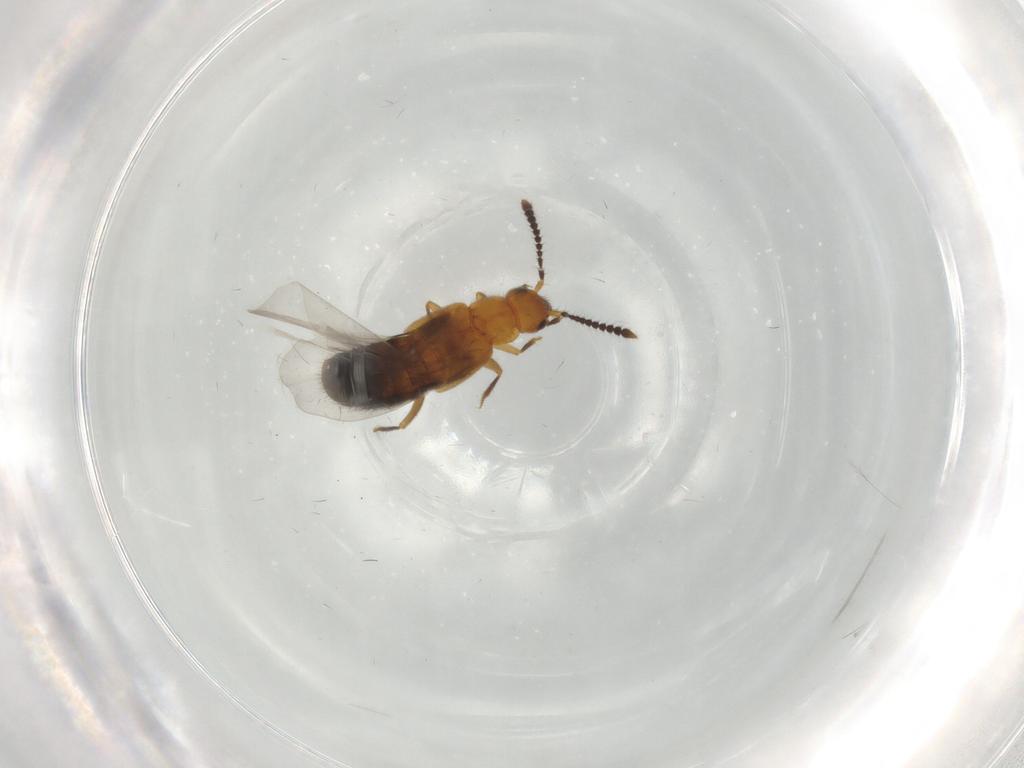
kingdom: Animalia
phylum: Arthropoda
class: Insecta
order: Coleoptera
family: Staphylinidae
